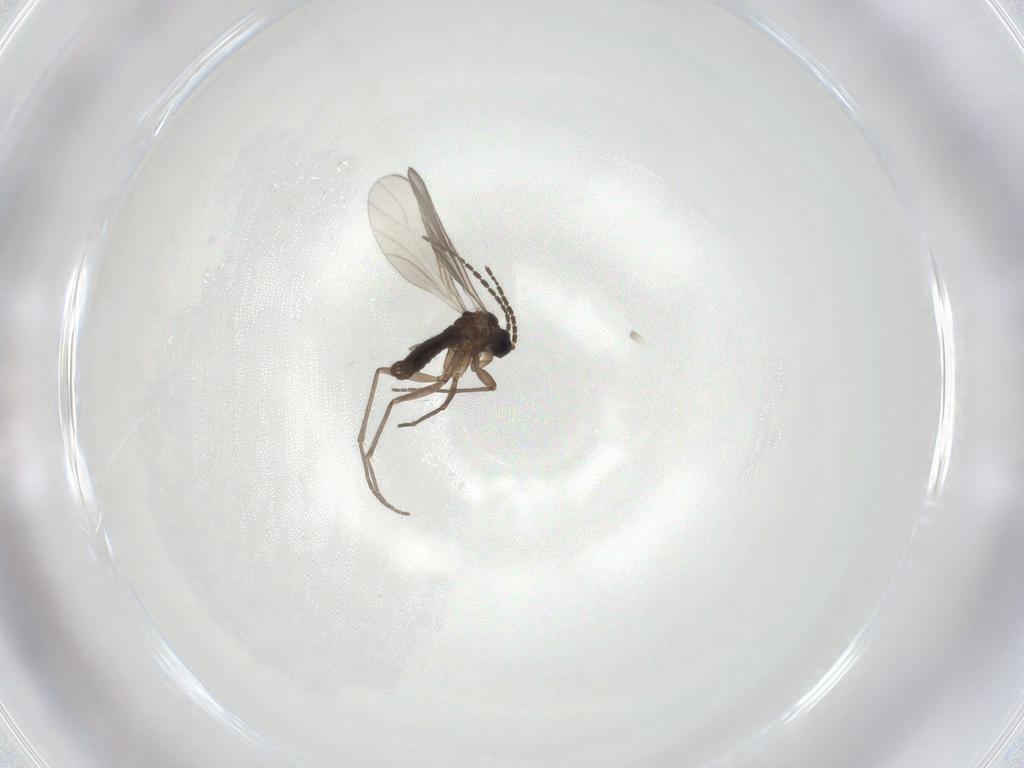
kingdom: Animalia
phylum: Arthropoda
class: Insecta
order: Diptera
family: Sciaridae
